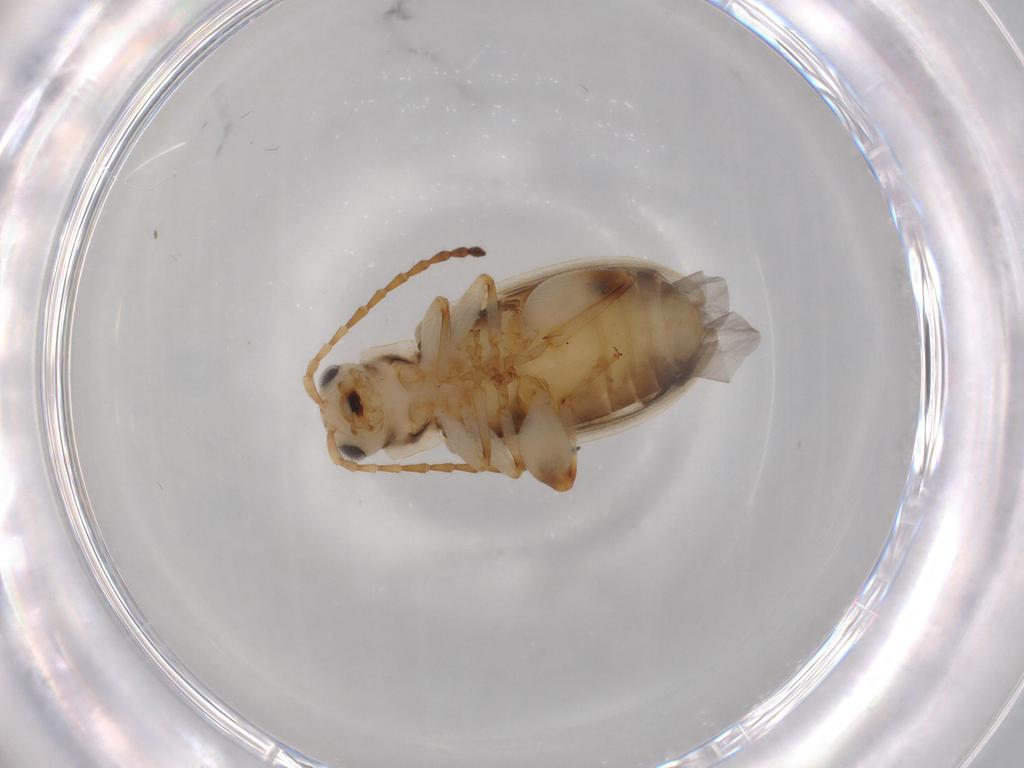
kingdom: Animalia
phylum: Arthropoda
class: Insecta
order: Coleoptera
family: Chrysomelidae
